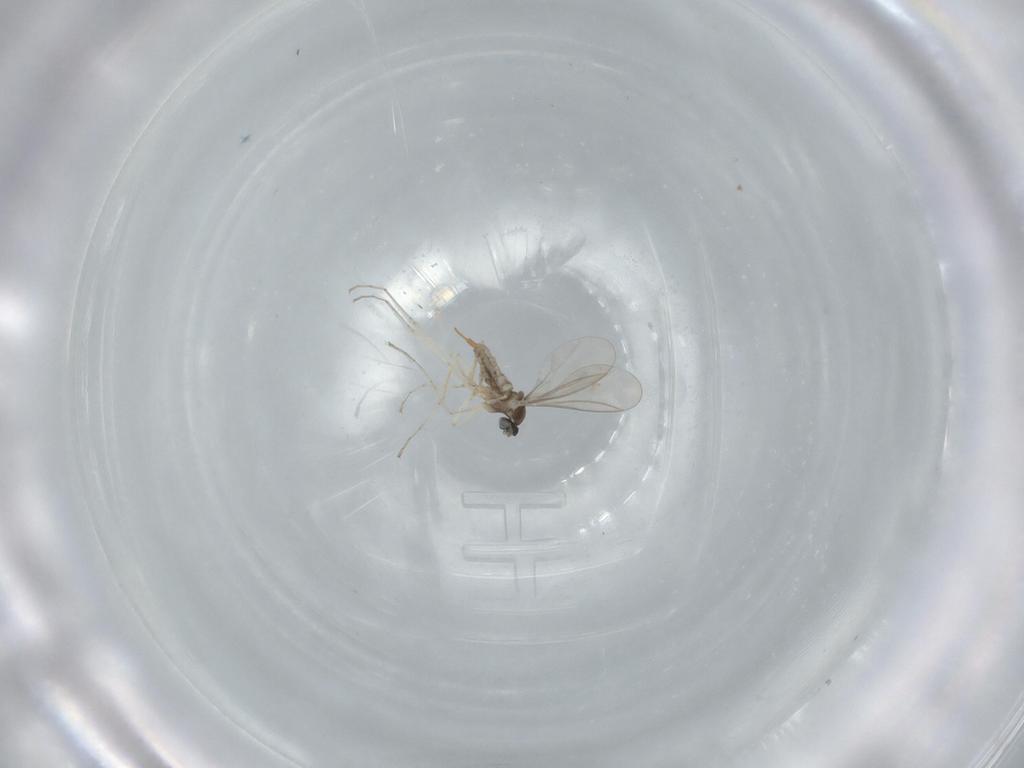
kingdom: Animalia
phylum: Arthropoda
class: Insecta
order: Diptera
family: Cecidomyiidae
